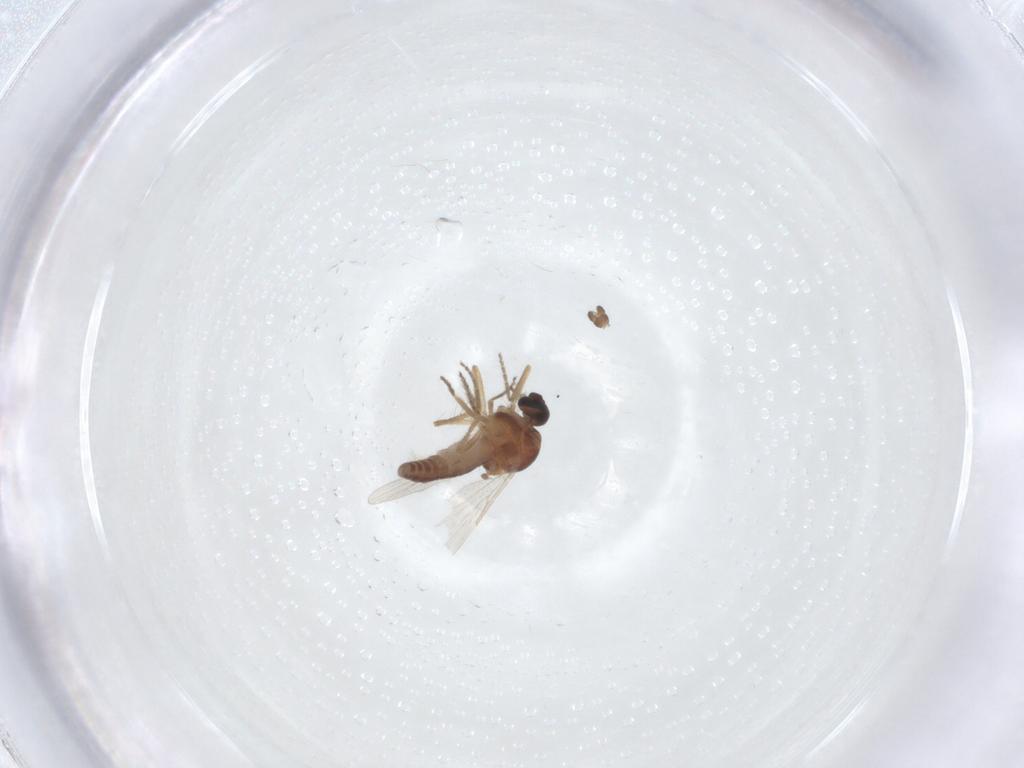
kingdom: Animalia
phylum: Arthropoda
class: Insecta
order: Diptera
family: Ceratopogonidae
